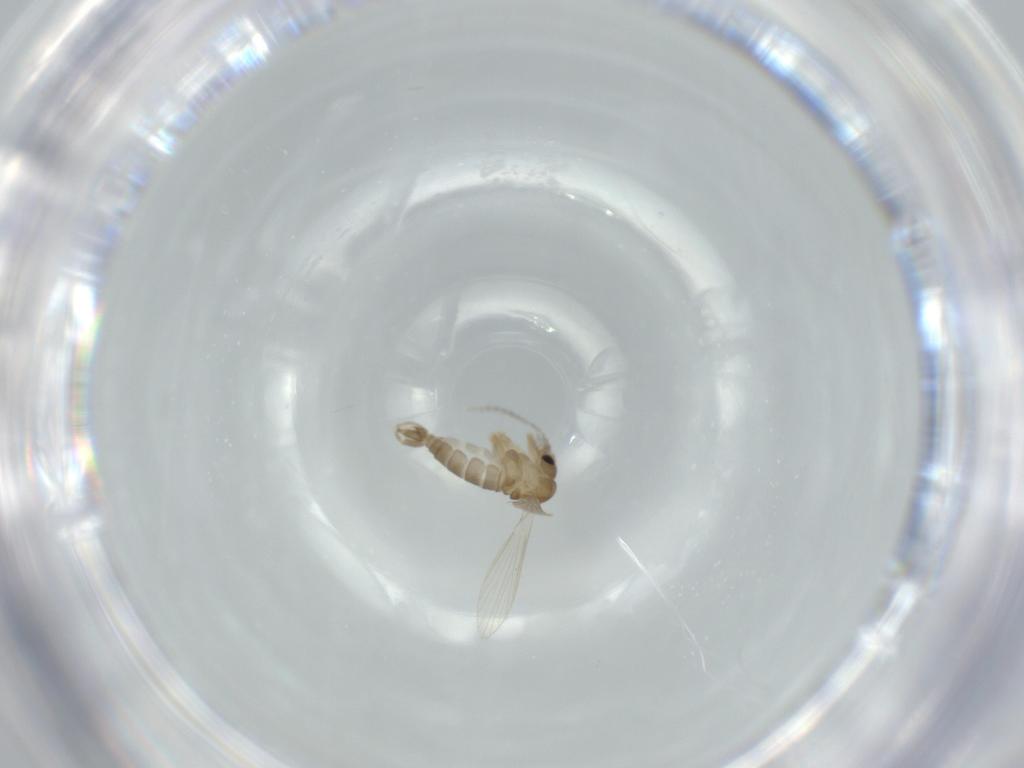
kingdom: Animalia
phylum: Arthropoda
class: Insecta
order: Diptera
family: Psychodidae
